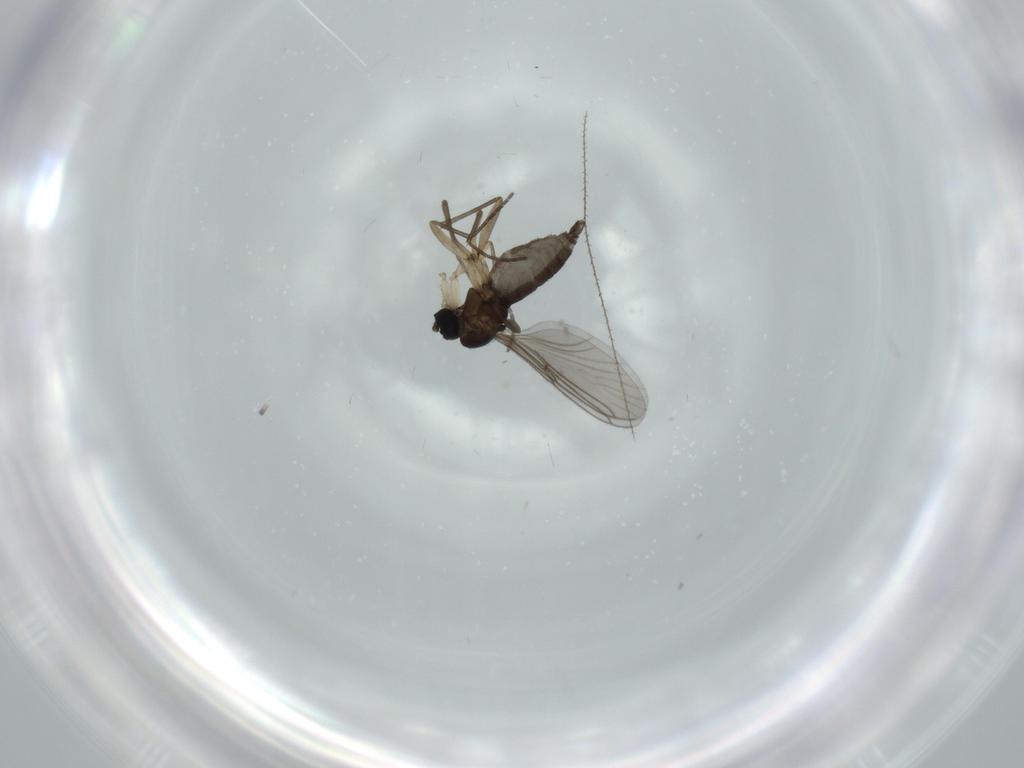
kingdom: Animalia
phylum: Arthropoda
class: Insecta
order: Diptera
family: Sciaridae
